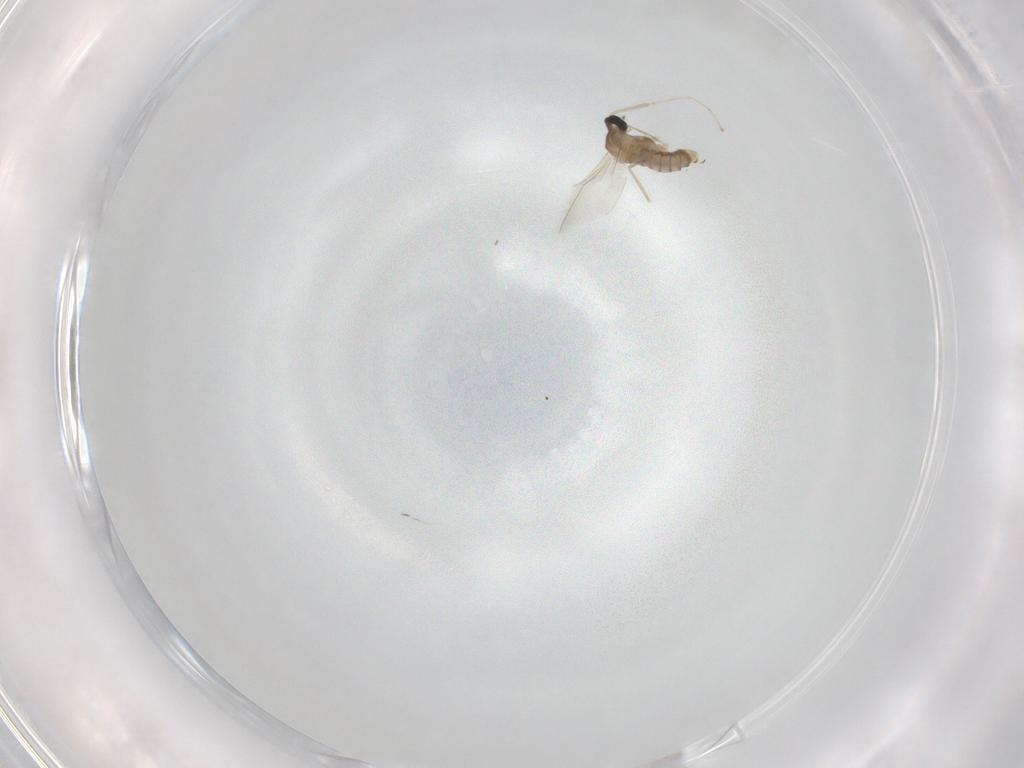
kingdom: Animalia
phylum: Arthropoda
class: Insecta
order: Diptera
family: Cecidomyiidae
